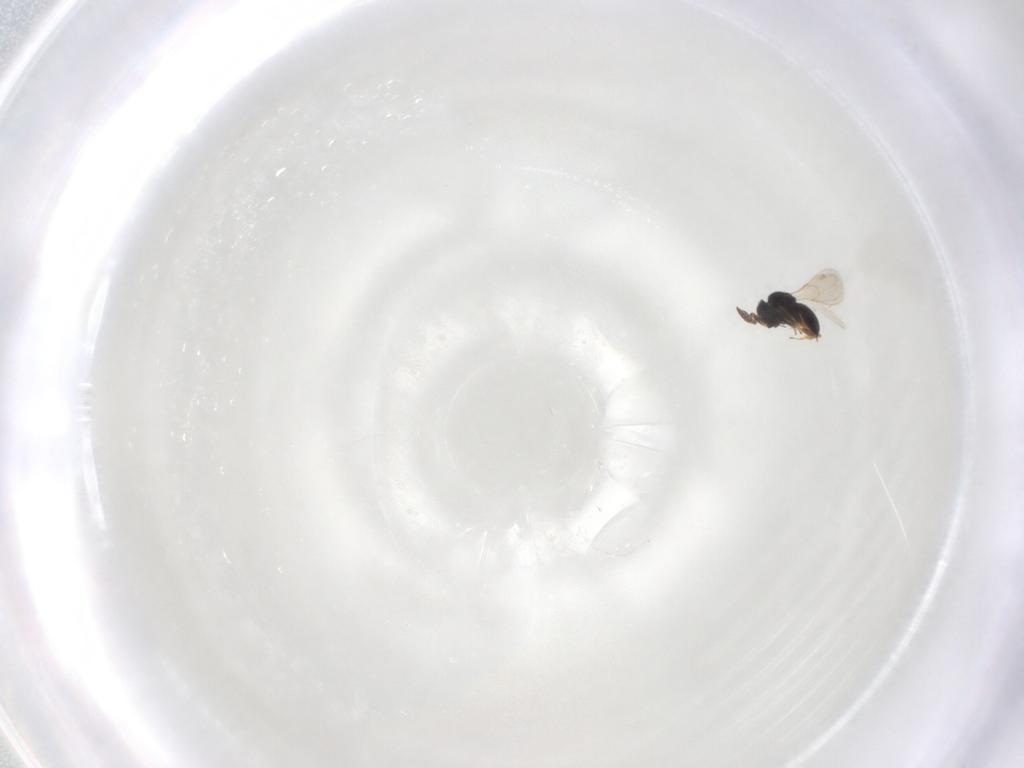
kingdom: Animalia
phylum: Arthropoda
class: Insecta
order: Hymenoptera
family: Scelionidae
